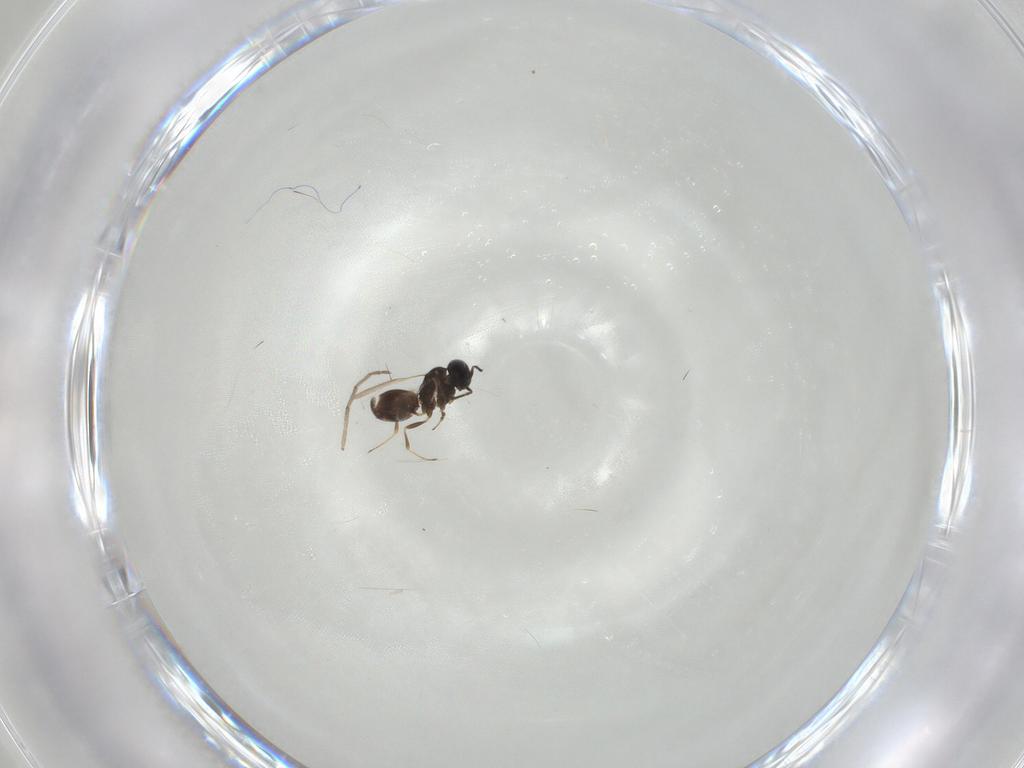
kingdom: Animalia
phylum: Arthropoda
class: Insecta
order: Hymenoptera
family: Scelionidae
